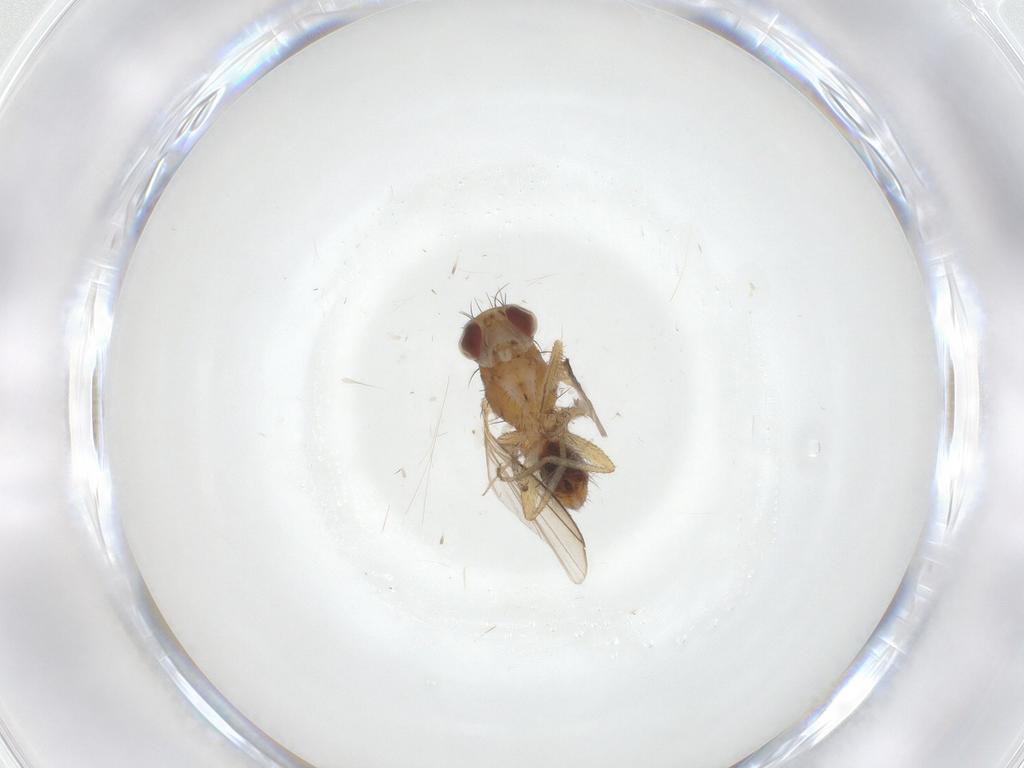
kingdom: Animalia
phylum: Arthropoda
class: Insecta
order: Diptera
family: Heleomyzidae
